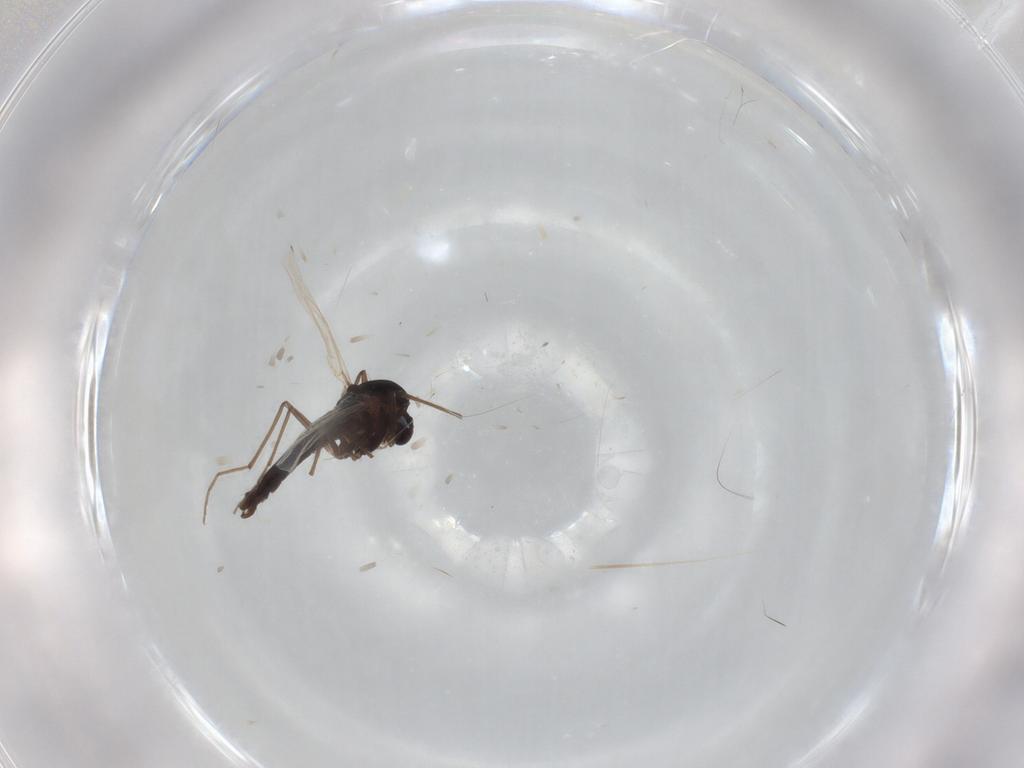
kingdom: Animalia
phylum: Arthropoda
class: Insecta
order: Diptera
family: Chironomidae
